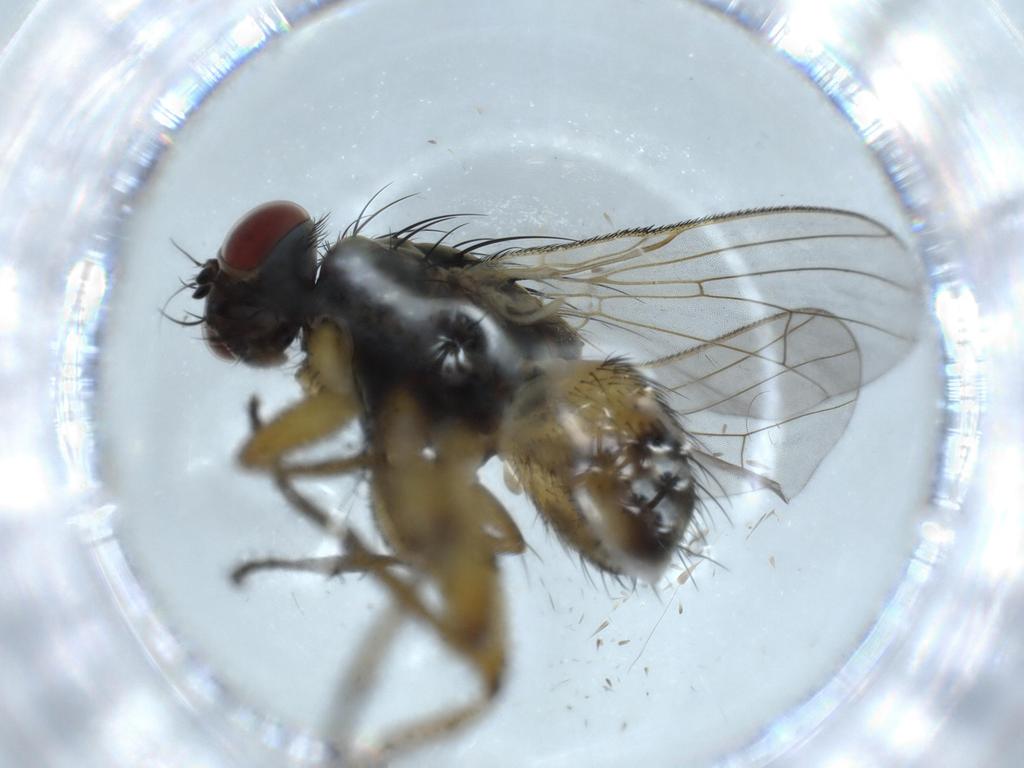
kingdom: Animalia
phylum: Arthropoda
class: Insecta
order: Diptera
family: Muscidae
